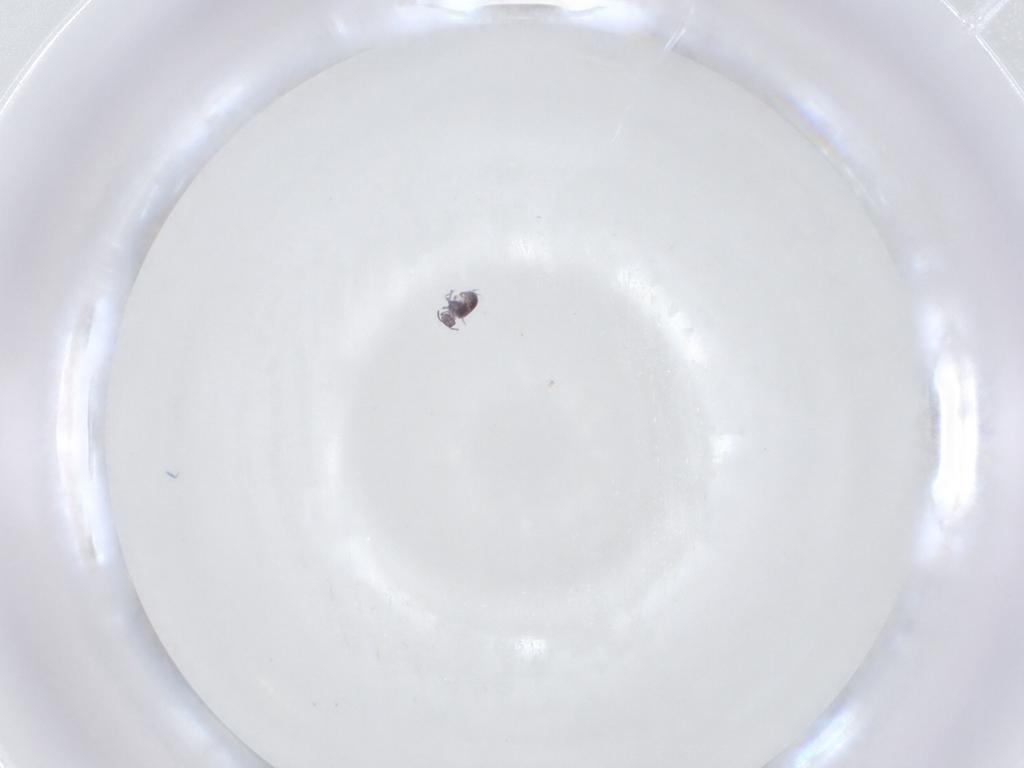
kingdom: Animalia
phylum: Arthropoda
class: Collembola
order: Symphypleona
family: Sminthurididae
